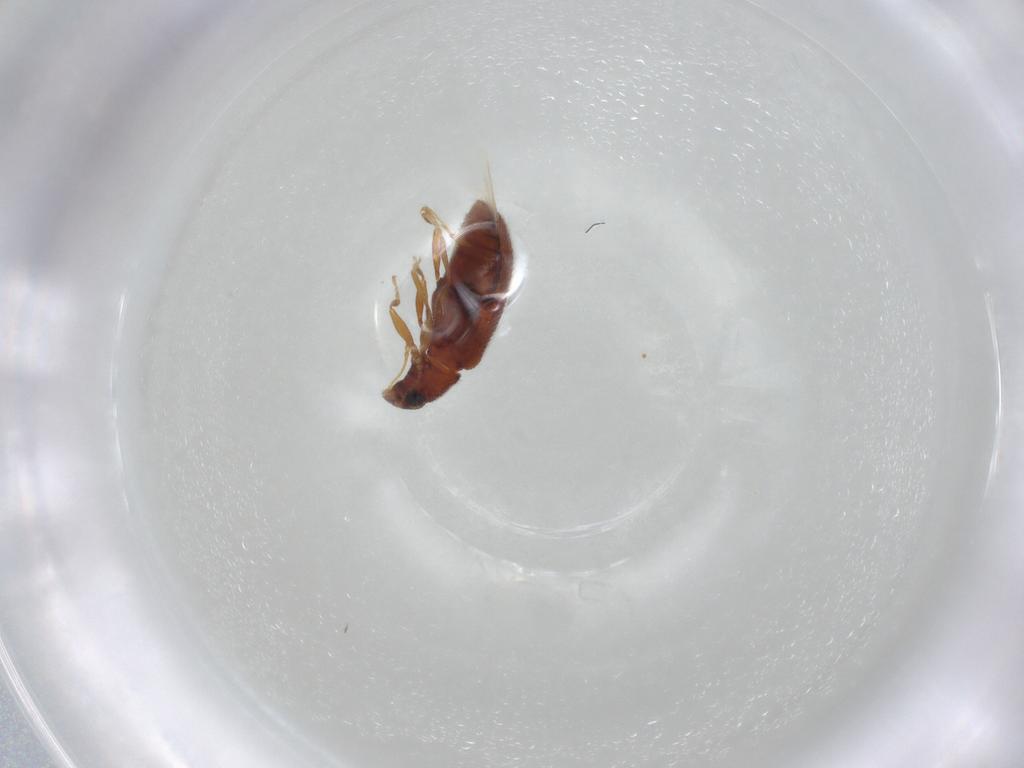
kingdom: Animalia
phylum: Arthropoda
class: Insecta
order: Coleoptera
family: Latridiidae
